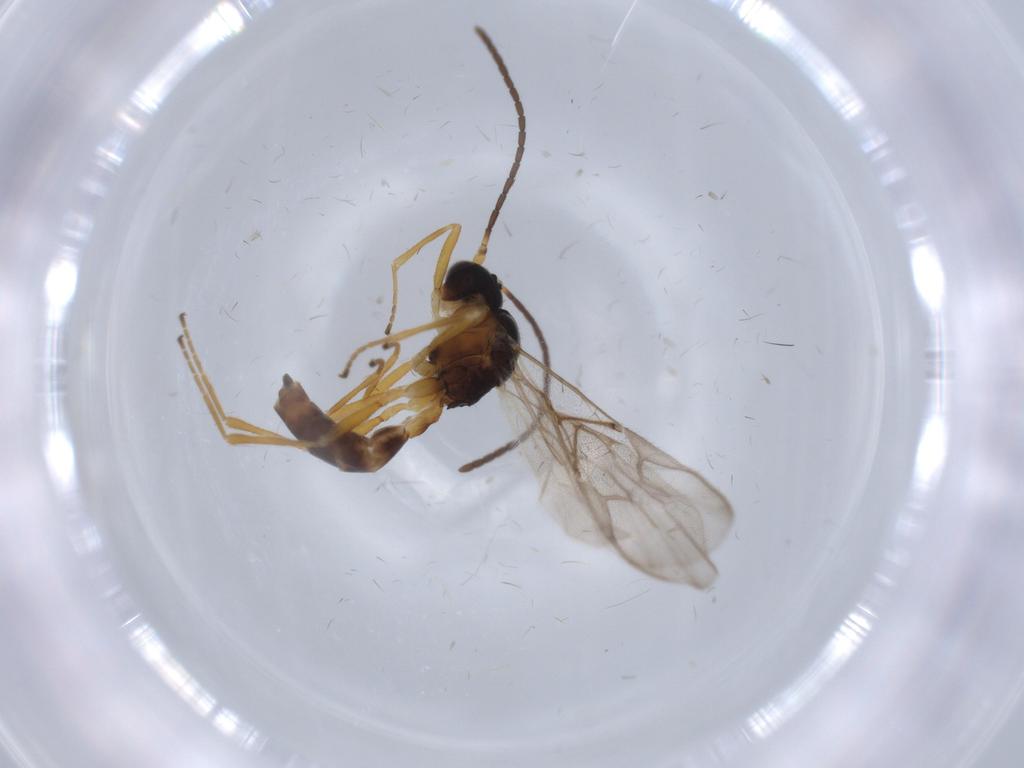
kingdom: Animalia
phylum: Arthropoda
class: Insecta
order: Hymenoptera
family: Braconidae
